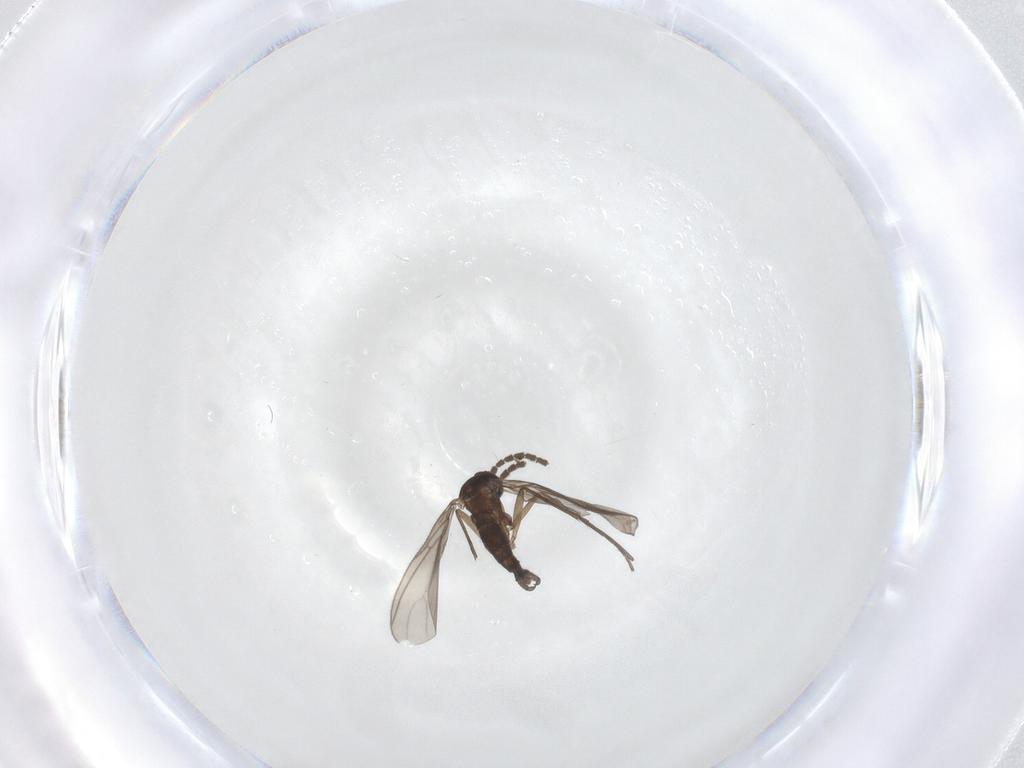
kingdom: Animalia
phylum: Arthropoda
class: Insecta
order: Diptera
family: Sciaridae
